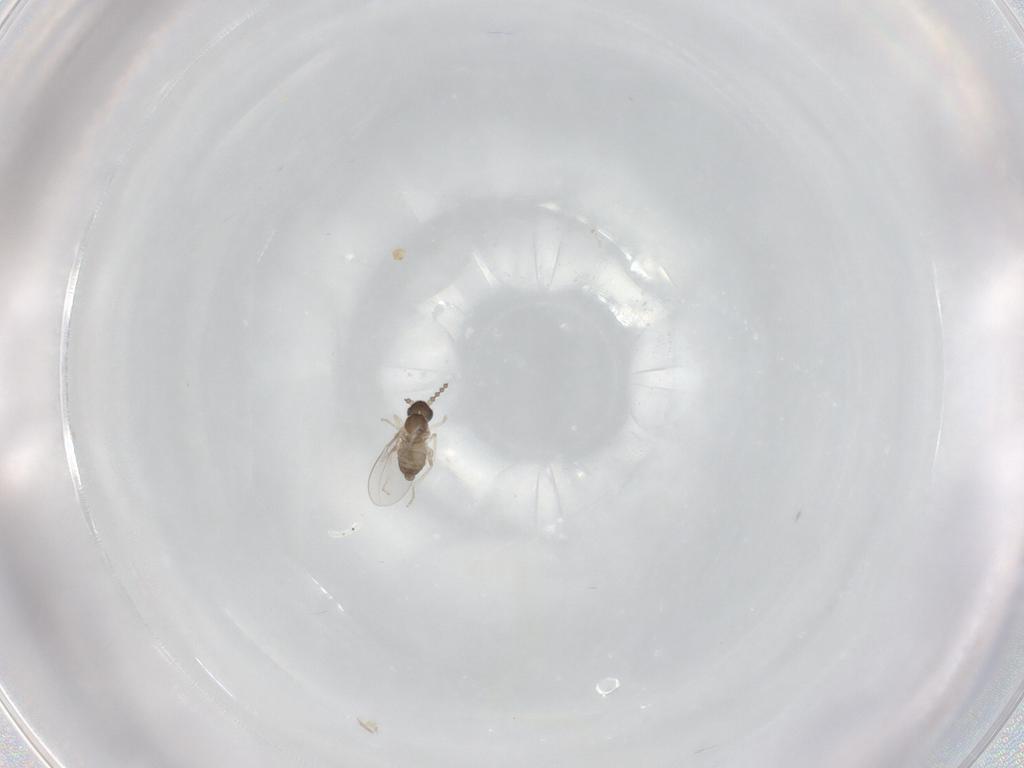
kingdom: Animalia
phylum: Arthropoda
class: Insecta
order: Diptera
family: Cecidomyiidae
